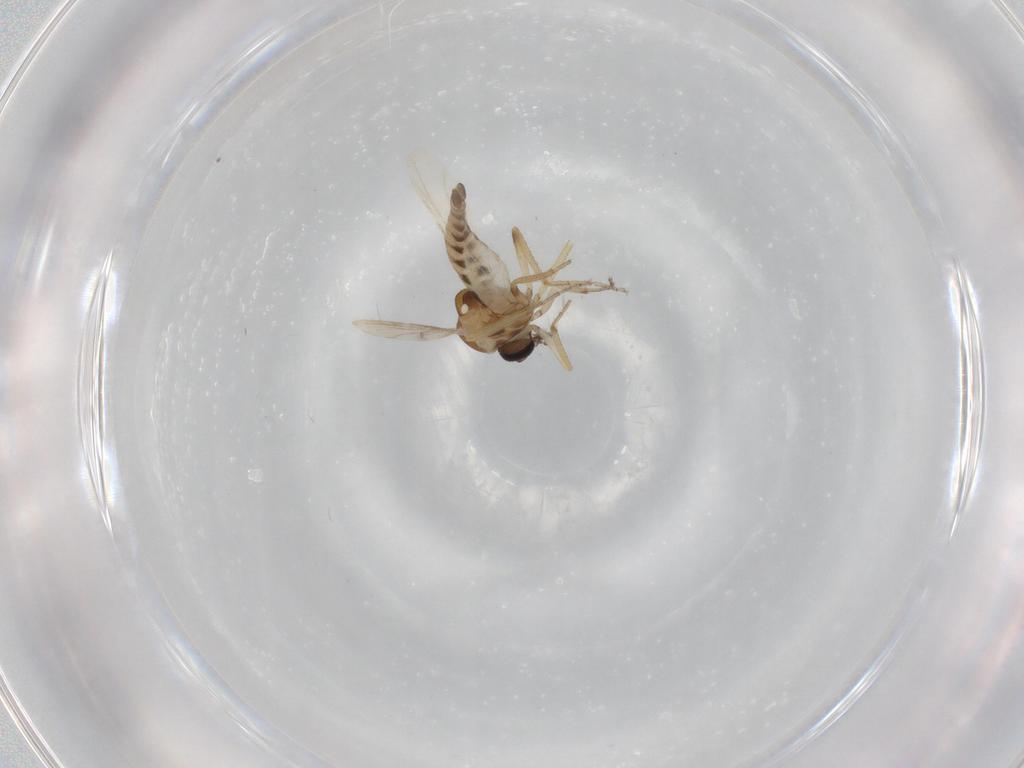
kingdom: Animalia
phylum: Arthropoda
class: Insecta
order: Diptera
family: Ceratopogonidae
